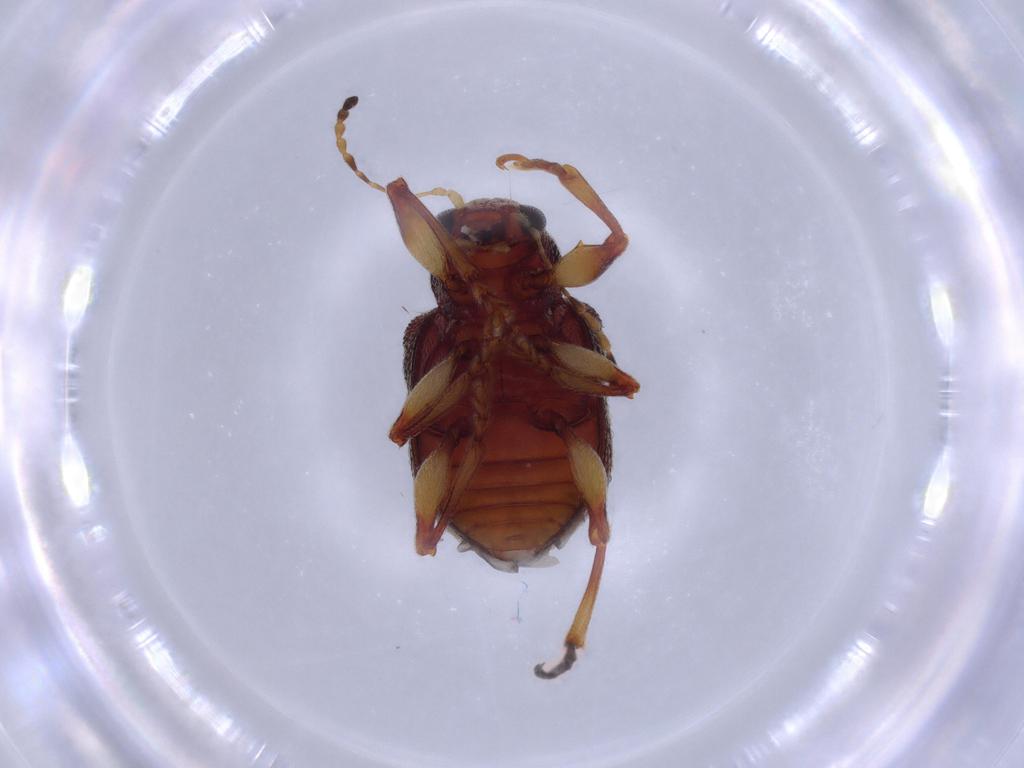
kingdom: Animalia
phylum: Arthropoda
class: Insecta
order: Coleoptera
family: Chrysomelidae
